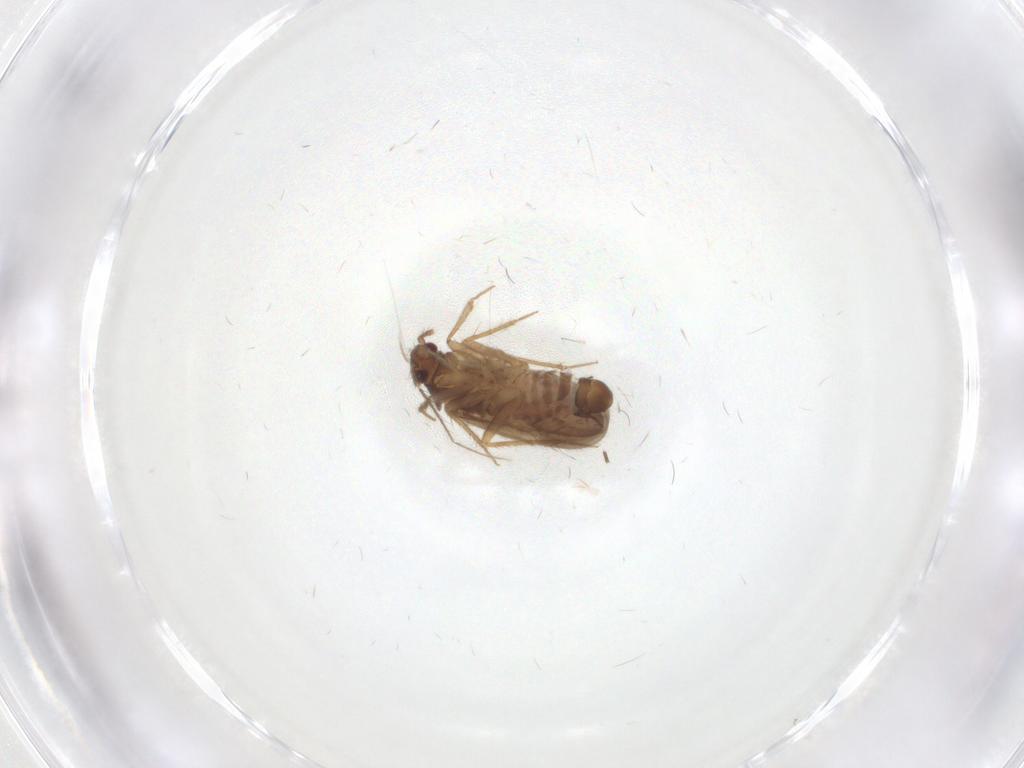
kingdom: Animalia
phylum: Arthropoda
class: Insecta
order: Hemiptera
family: Ceratocombidae
